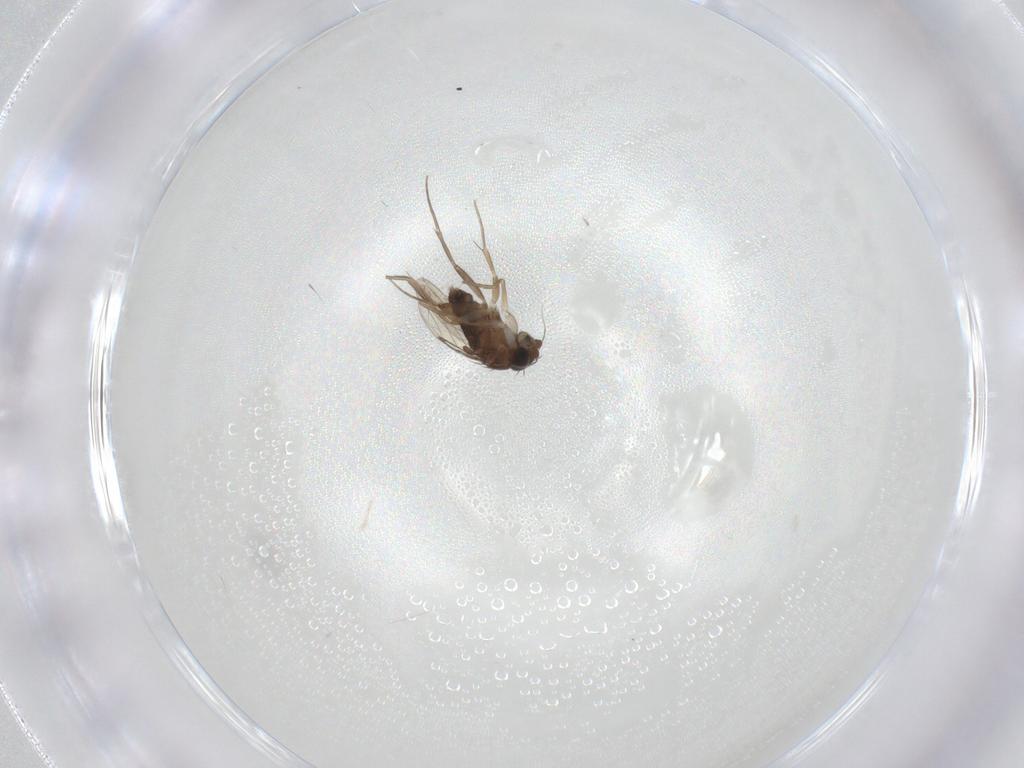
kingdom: Animalia
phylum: Arthropoda
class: Insecta
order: Diptera
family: Phoridae
